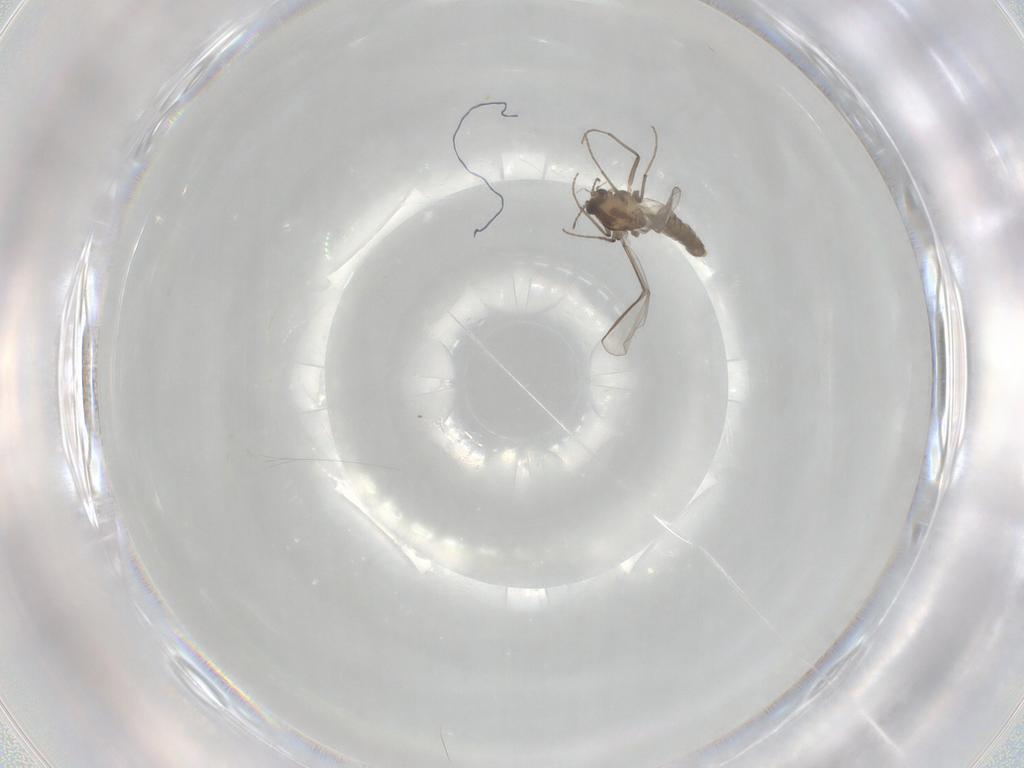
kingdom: Animalia
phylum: Arthropoda
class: Insecta
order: Diptera
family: Chironomidae
